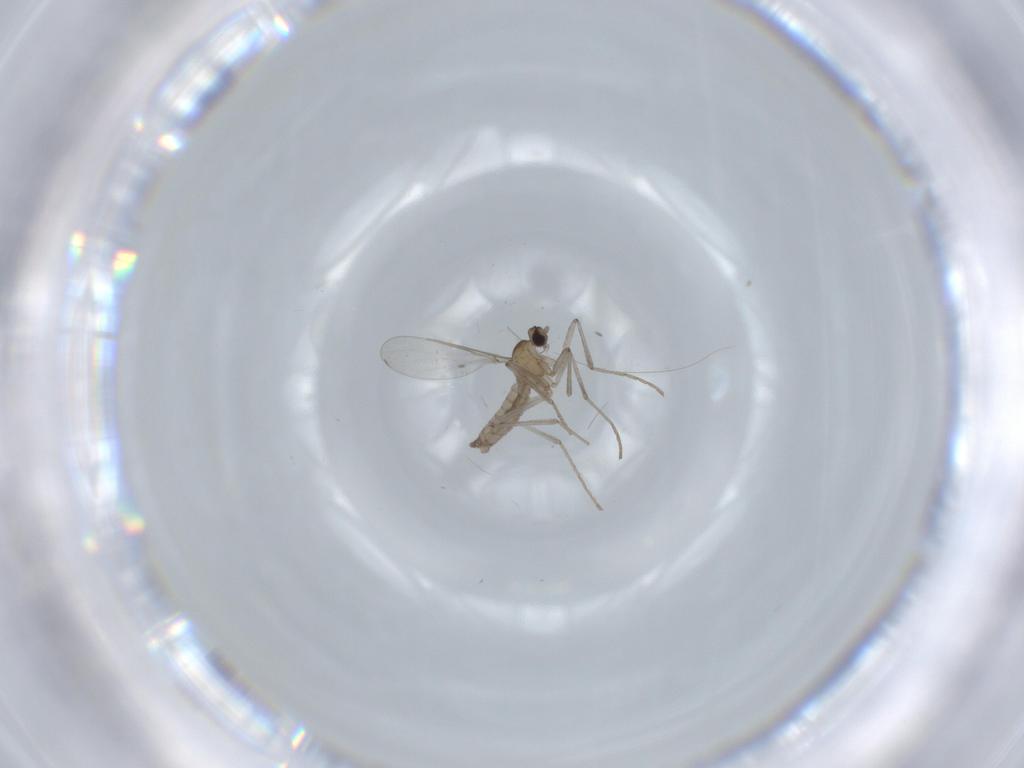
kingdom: Animalia
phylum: Arthropoda
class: Insecta
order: Diptera
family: Cecidomyiidae
